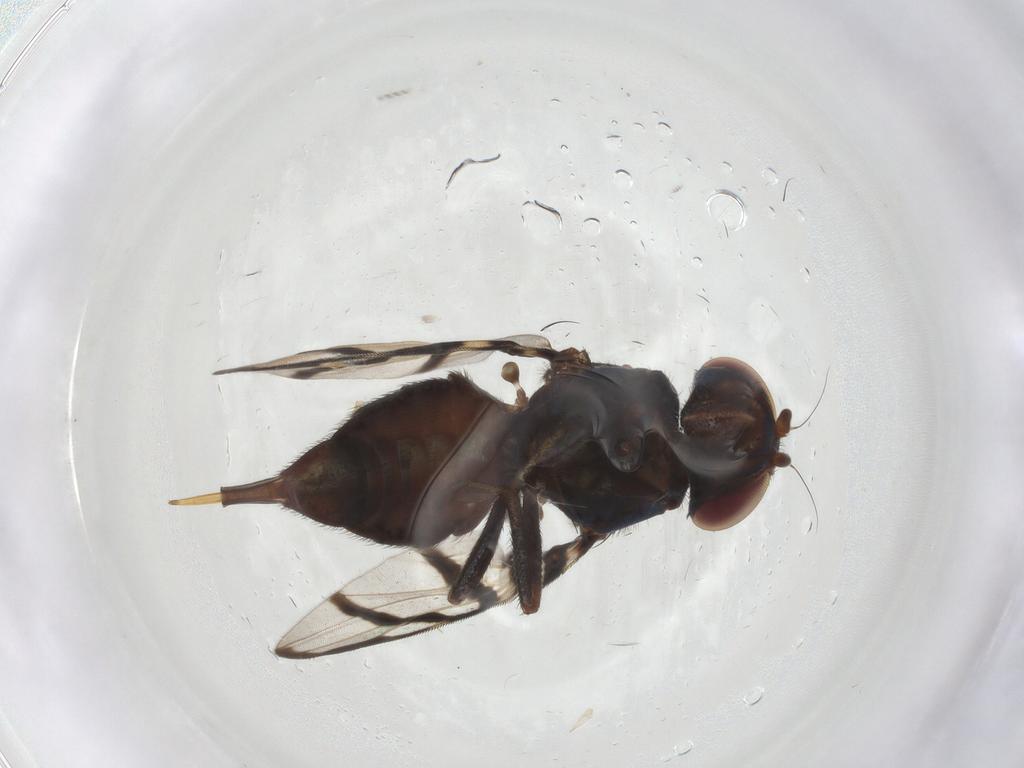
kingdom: Animalia
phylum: Arthropoda
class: Insecta
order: Diptera
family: Ulidiidae
